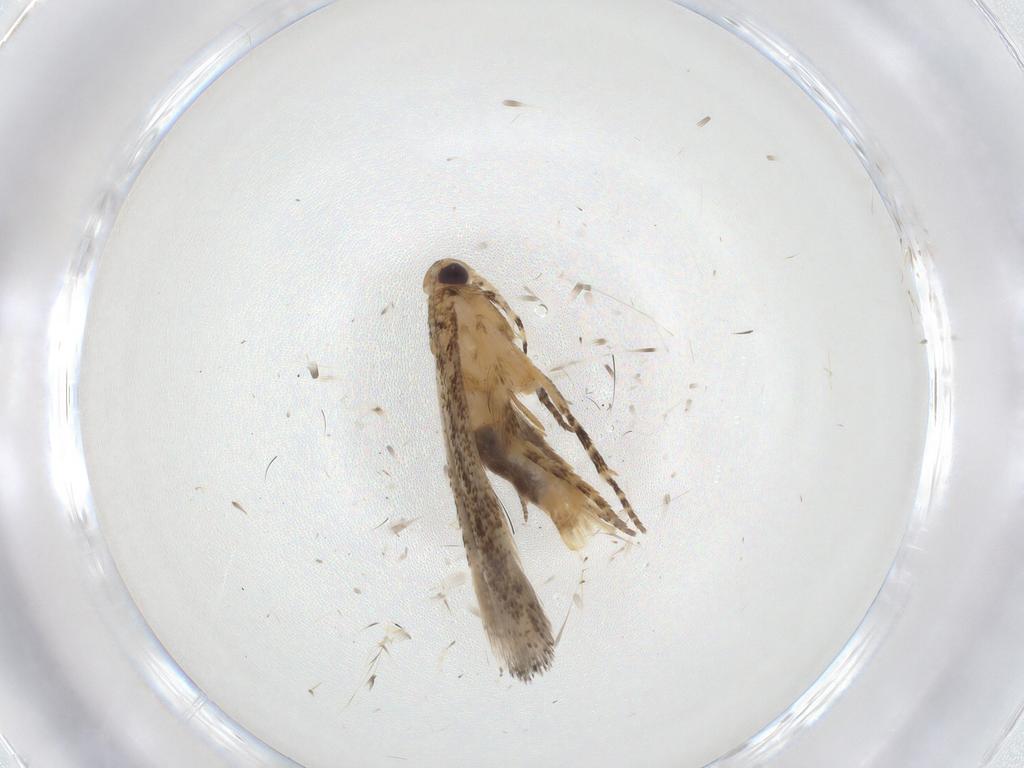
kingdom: Animalia
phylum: Arthropoda
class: Insecta
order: Lepidoptera
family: Gelechiidae
